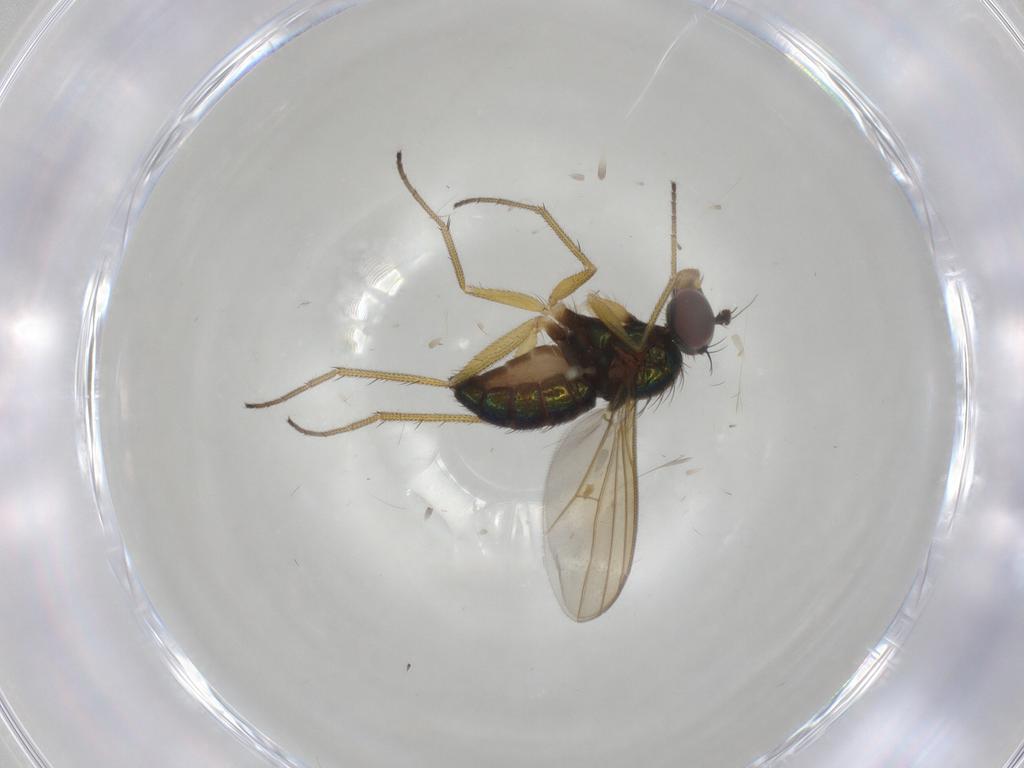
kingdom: Animalia
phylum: Arthropoda
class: Insecta
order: Diptera
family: Dolichopodidae
